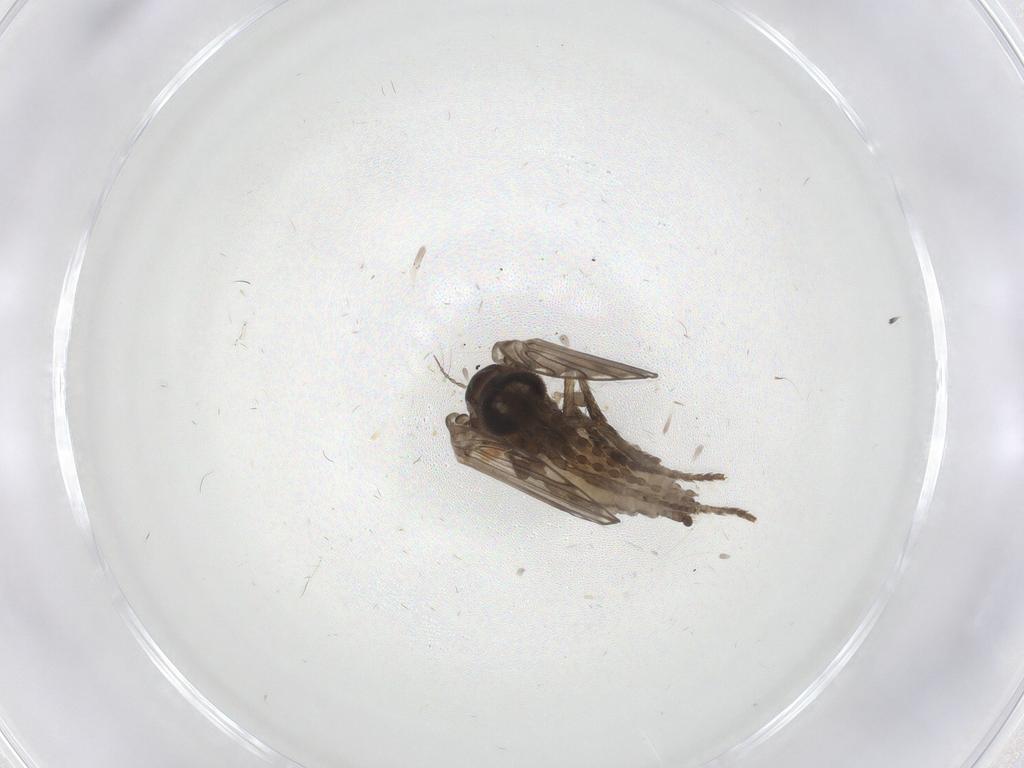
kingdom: Animalia
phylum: Arthropoda
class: Insecta
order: Diptera
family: Psychodidae
